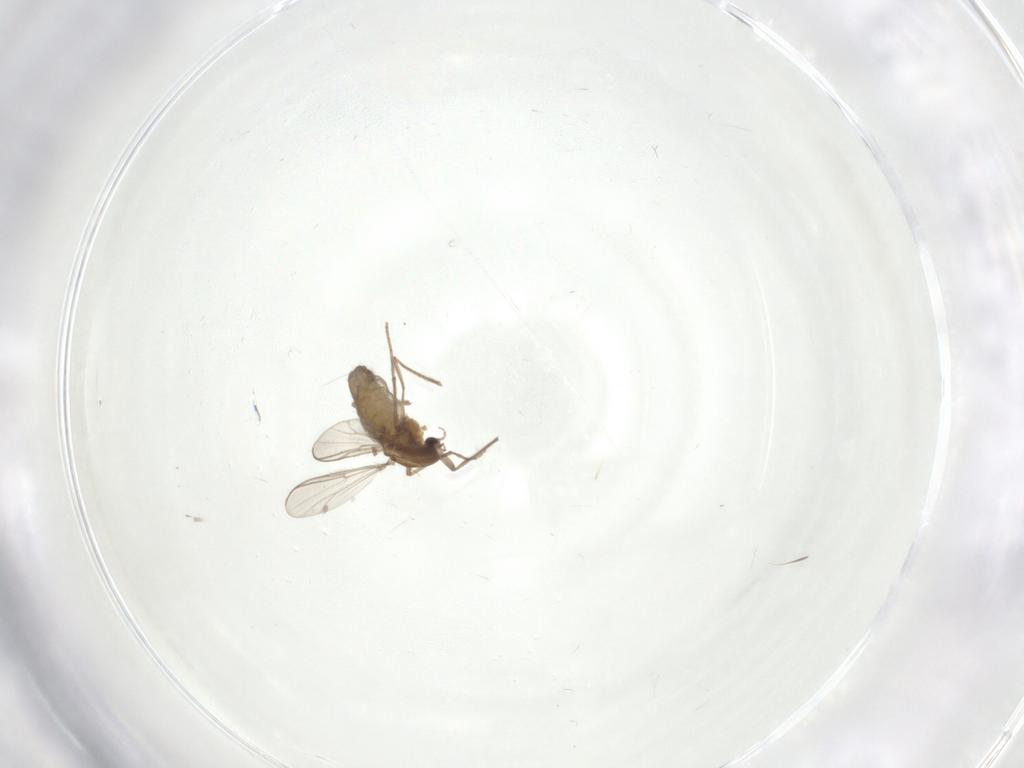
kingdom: Animalia
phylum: Arthropoda
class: Insecta
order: Diptera
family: Chironomidae
